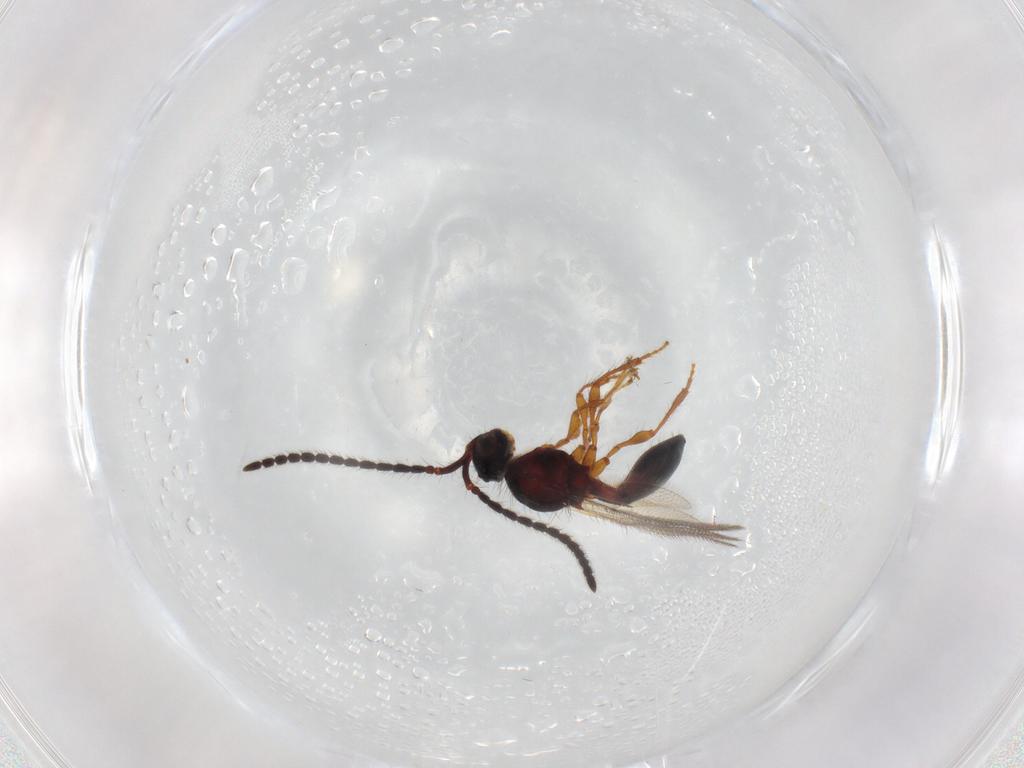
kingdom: Animalia
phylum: Arthropoda
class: Insecta
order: Hymenoptera
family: Diapriidae
